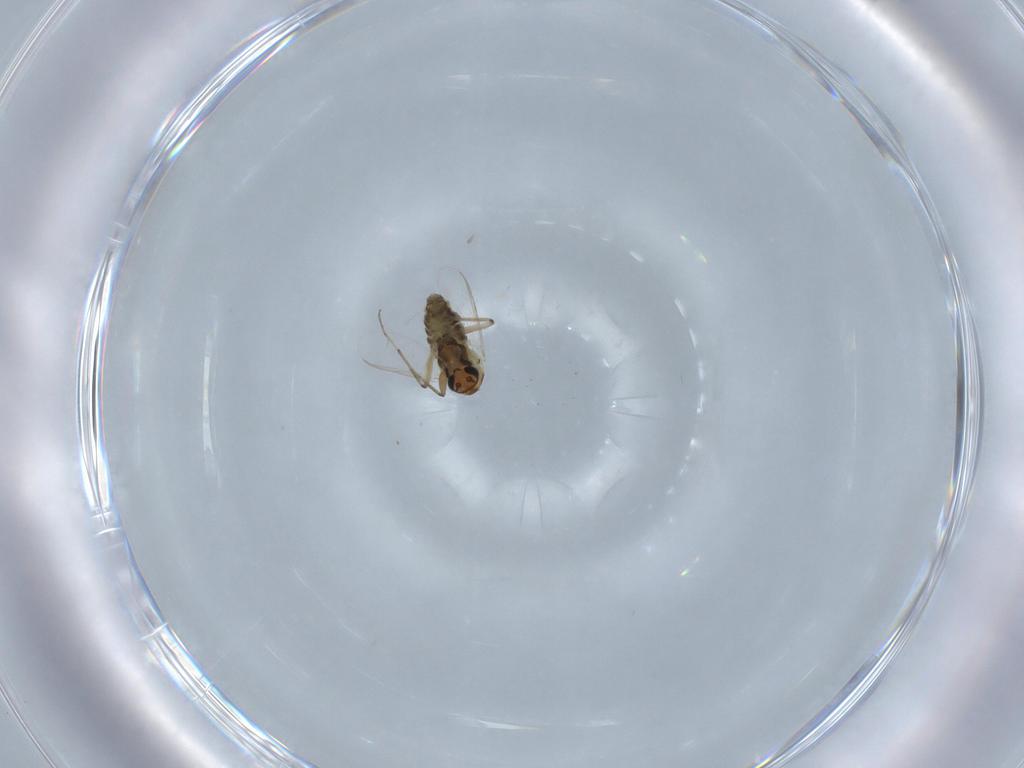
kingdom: Animalia
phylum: Arthropoda
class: Insecta
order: Diptera
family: Chironomidae
